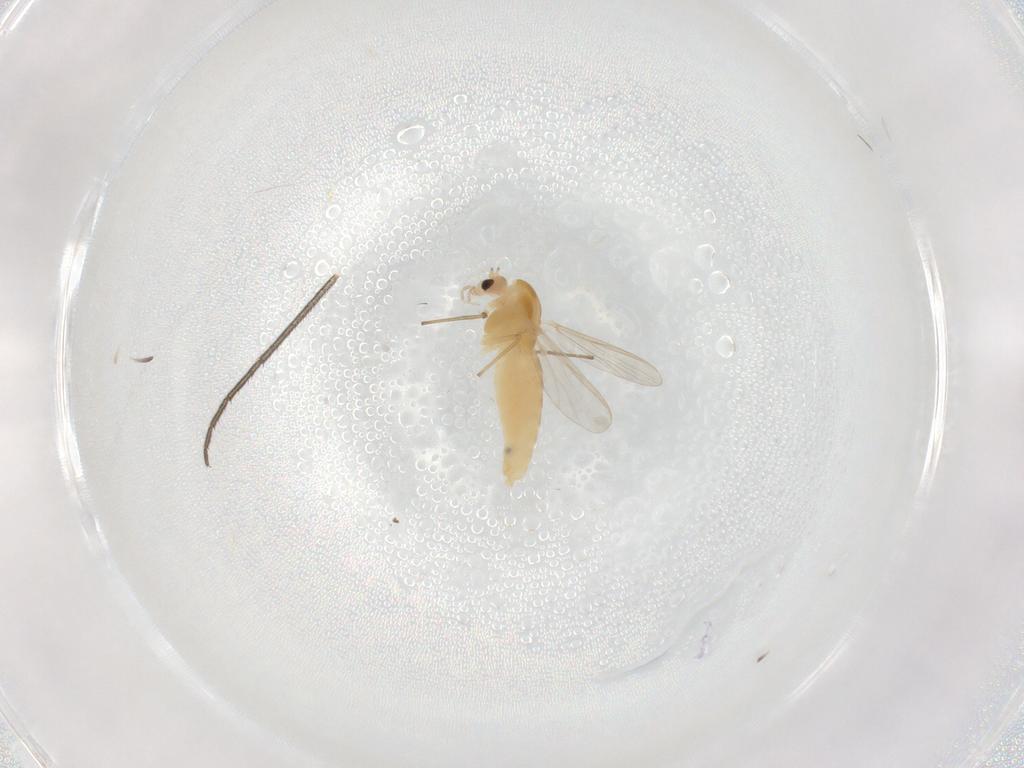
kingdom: Animalia
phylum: Arthropoda
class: Insecta
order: Diptera
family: Chironomidae
